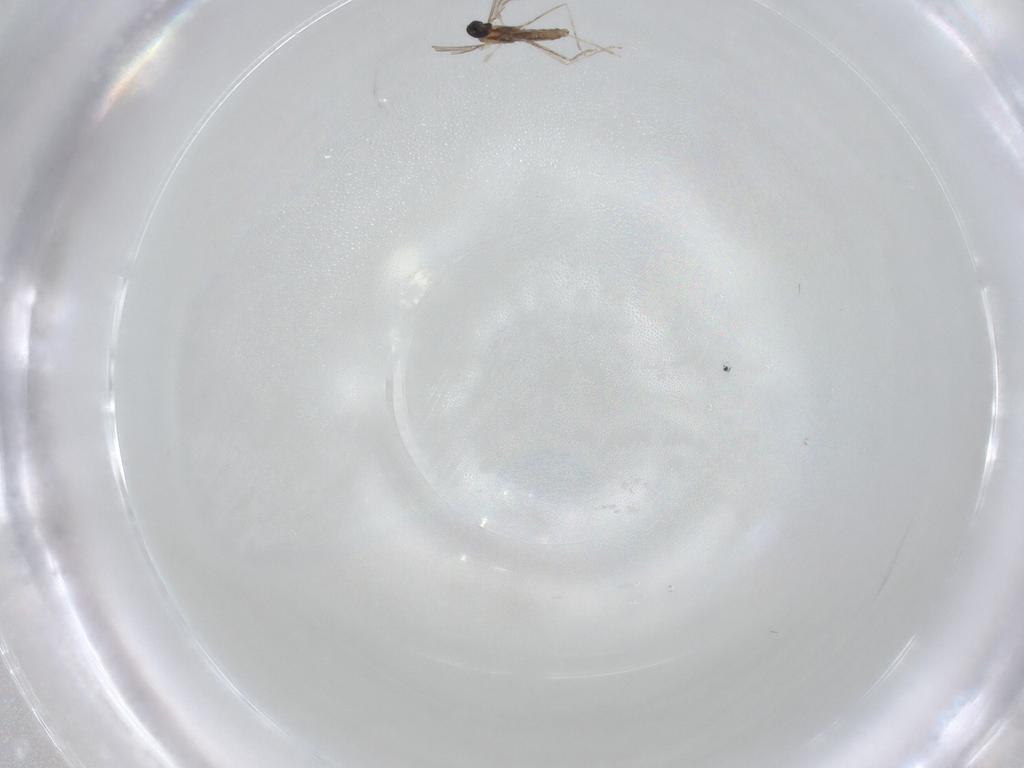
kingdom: Animalia
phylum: Arthropoda
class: Insecta
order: Diptera
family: Cecidomyiidae
